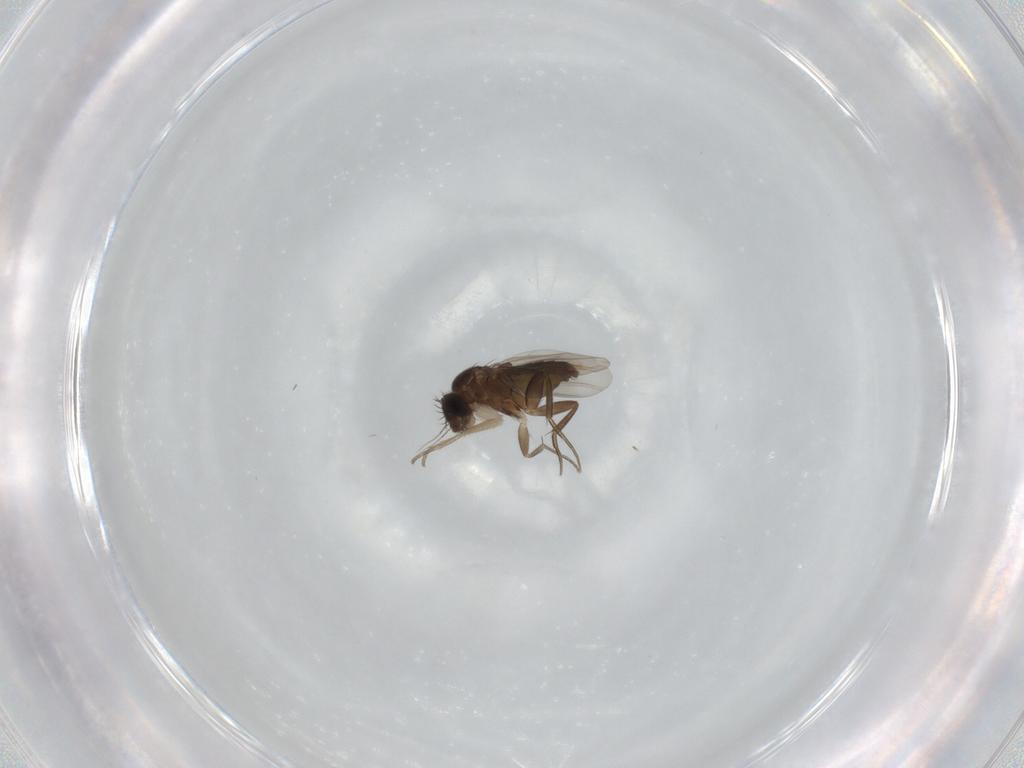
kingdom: Animalia
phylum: Arthropoda
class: Insecta
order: Diptera
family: Phoridae
